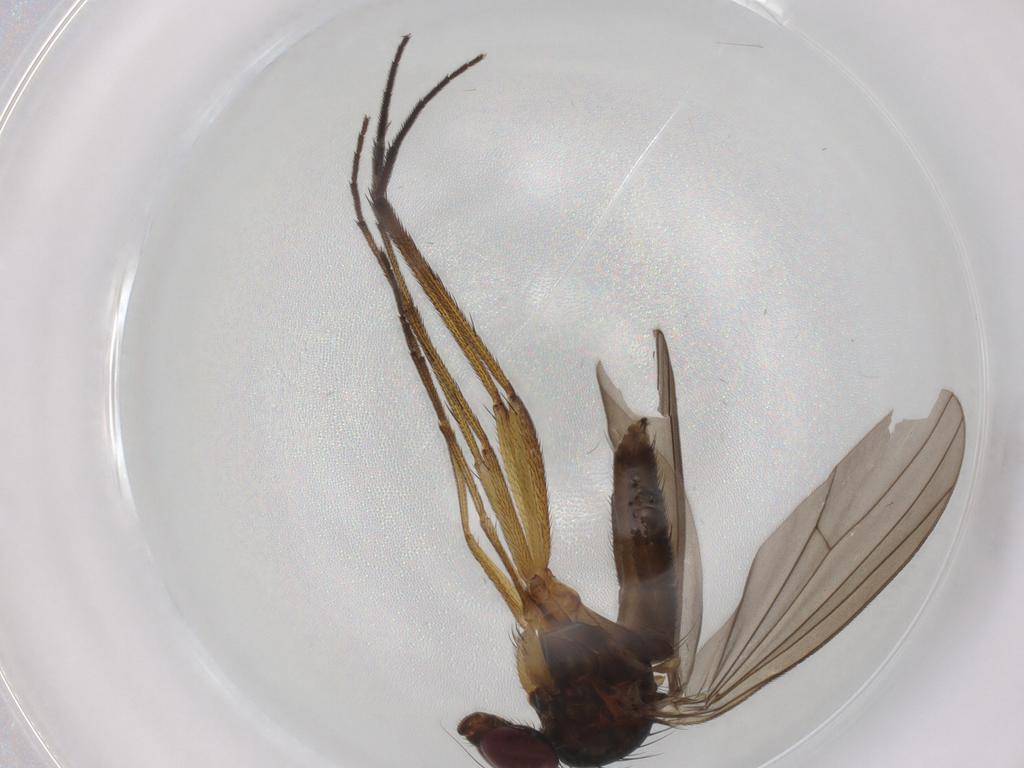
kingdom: Animalia
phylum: Arthropoda
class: Insecta
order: Diptera
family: Dolichopodidae
